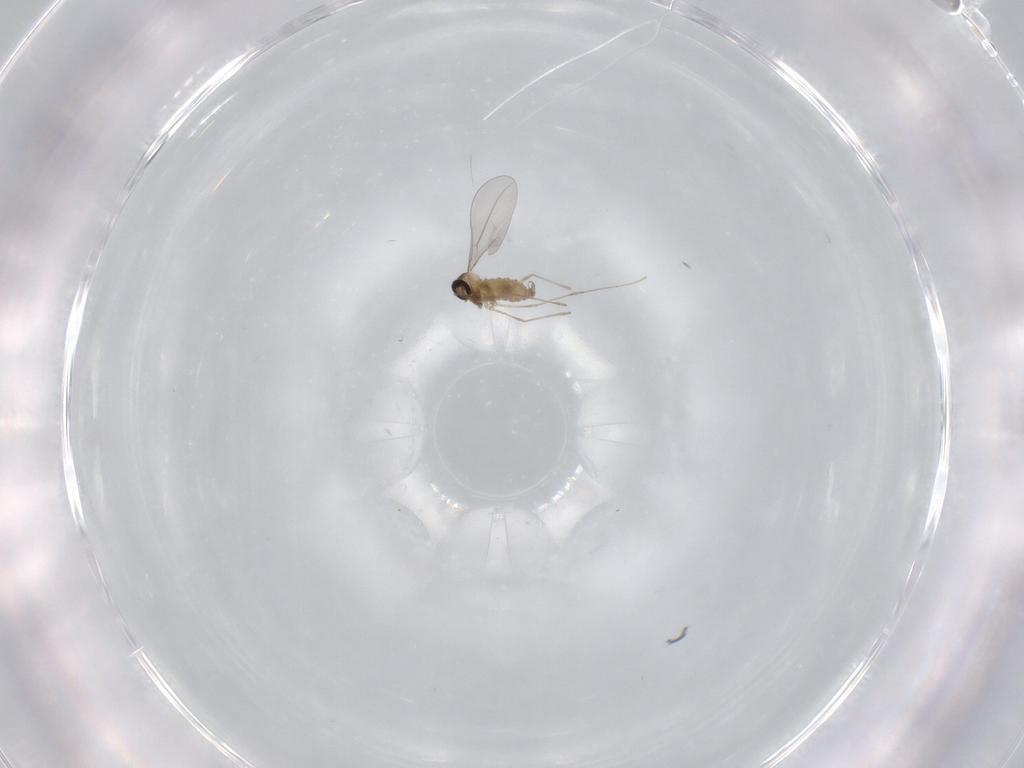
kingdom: Animalia
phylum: Arthropoda
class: Insecta
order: Diptera
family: Cecidomyiidae
